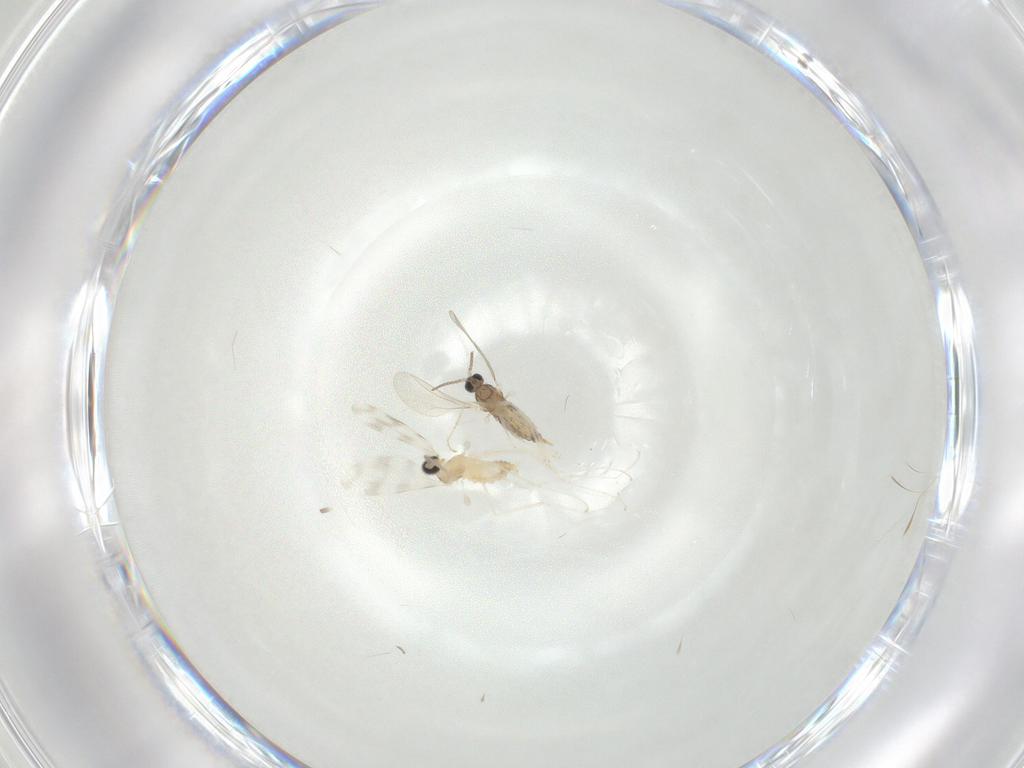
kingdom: Animalia
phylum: Arthropoda
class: Insecta
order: Diptera
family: Cecidomyiidae
